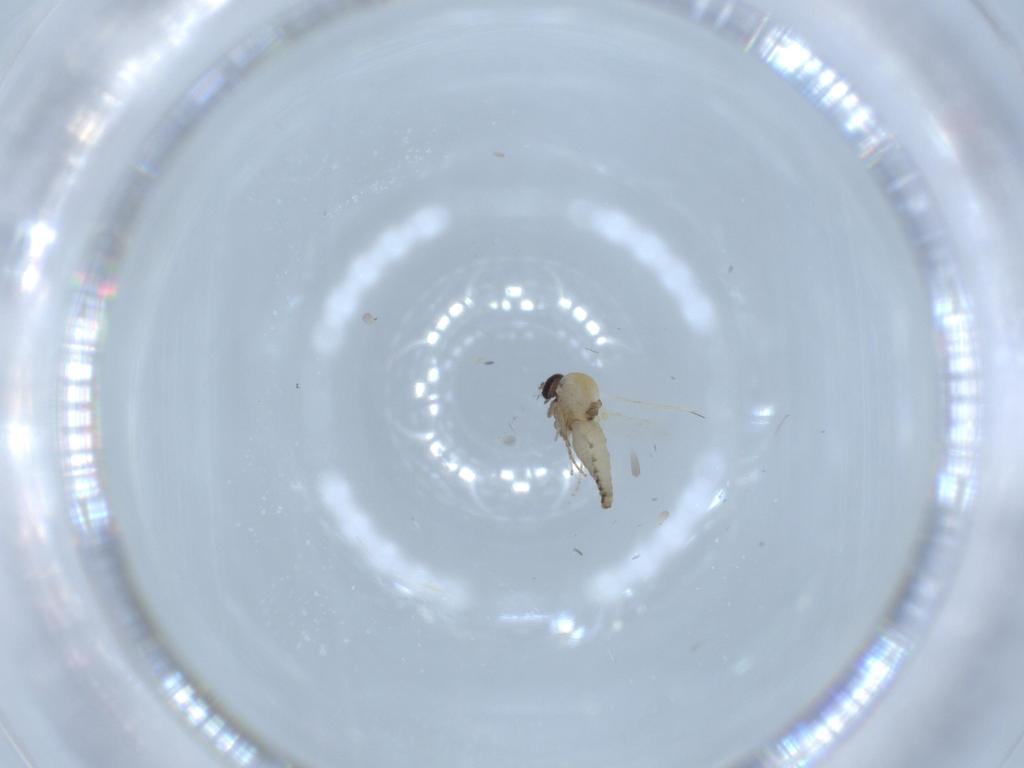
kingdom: Animalia
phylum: Arthropoda
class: Insecta
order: Diptera
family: Ceratopogonidae
